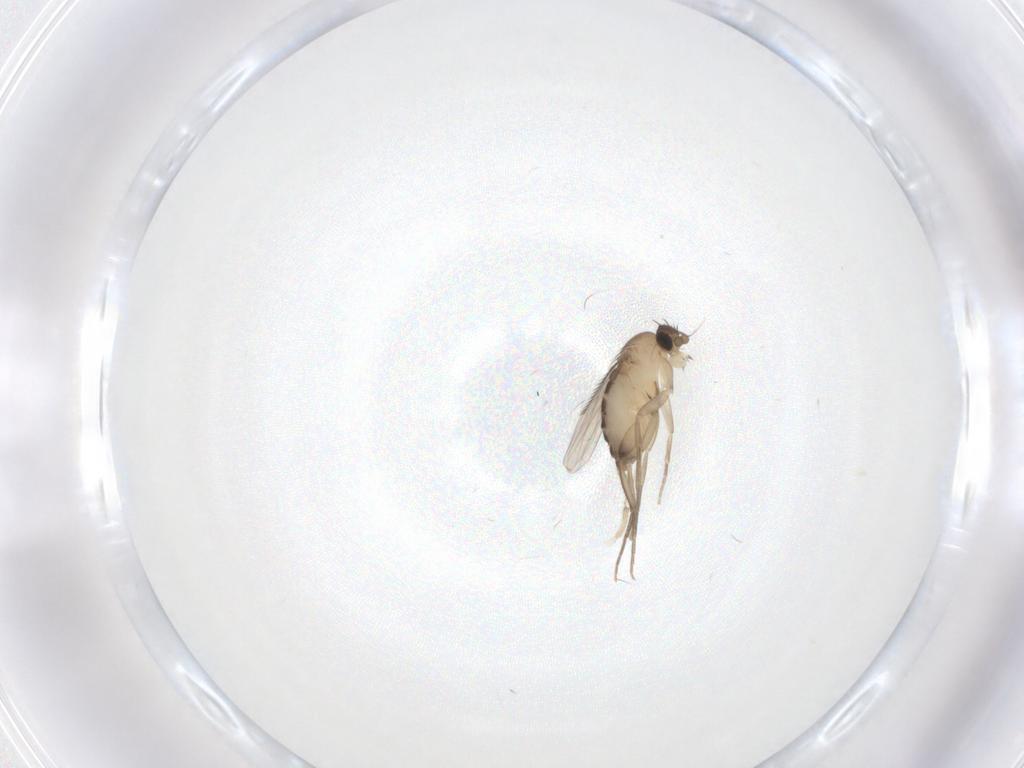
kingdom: Animalia
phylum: Arthropoda
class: Insecta
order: Diptera
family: Phoridae
